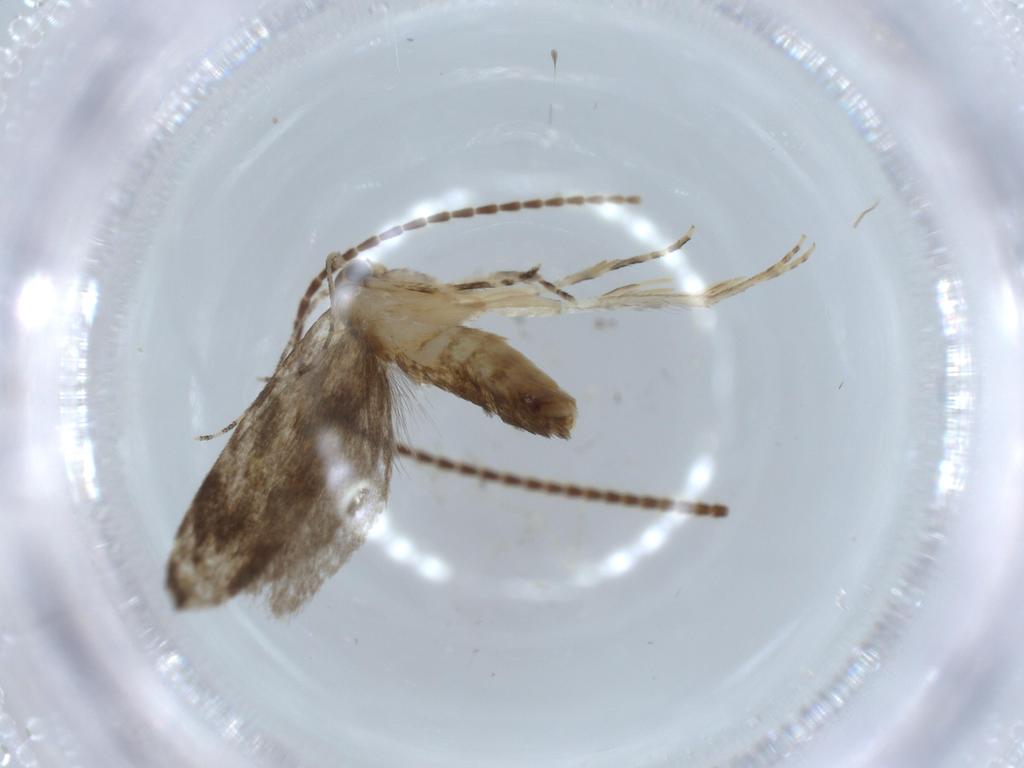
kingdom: Animalia
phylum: Arthropoda
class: Insecta
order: Lepidoptera
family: Tineidae
